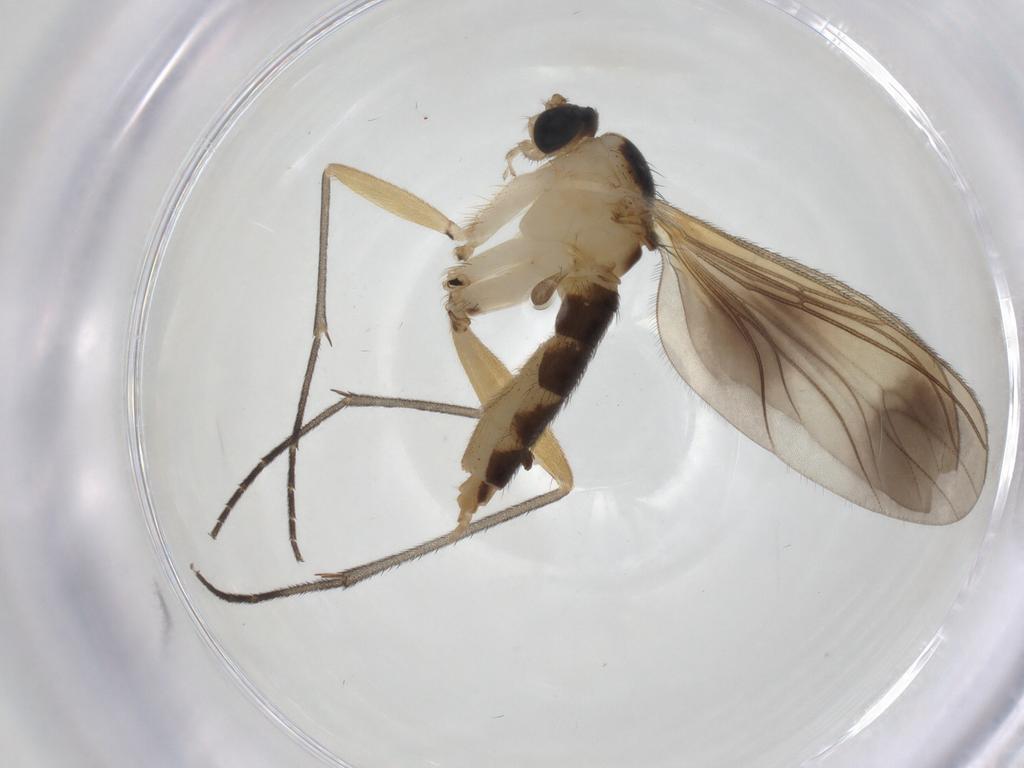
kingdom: Animalia
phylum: Arthropoda
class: Insecta
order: Diptera
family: Sciaridae
